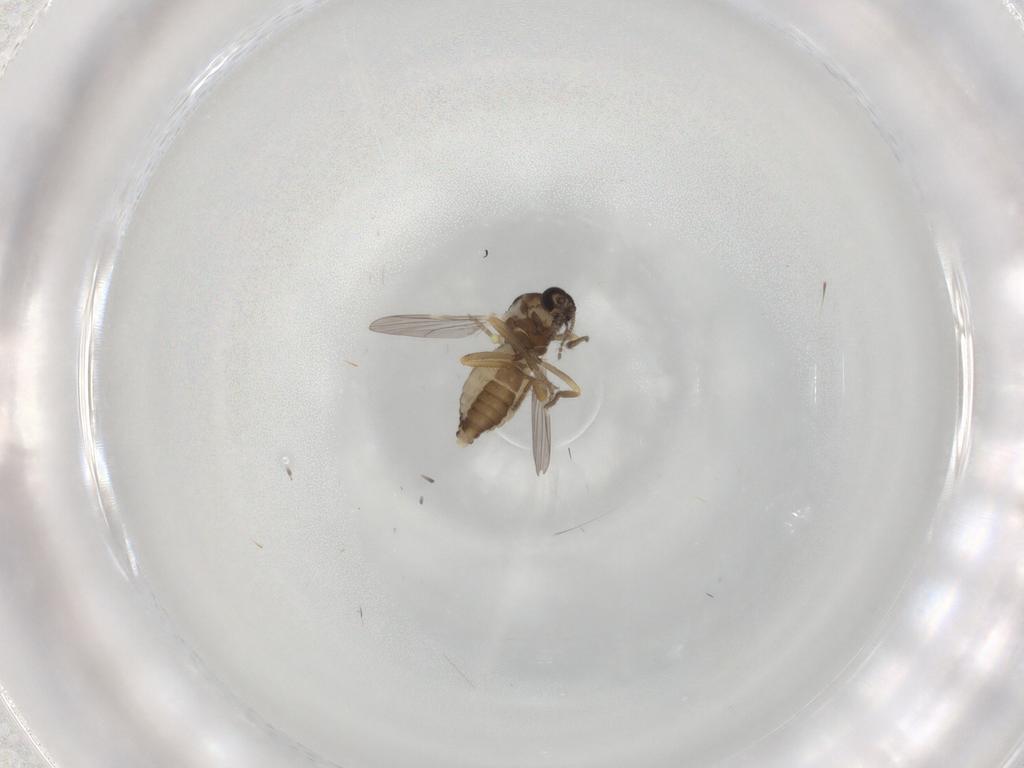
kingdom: Animalia
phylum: Arthropoda
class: Insecta
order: Diptera
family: Ceratopogonidae
